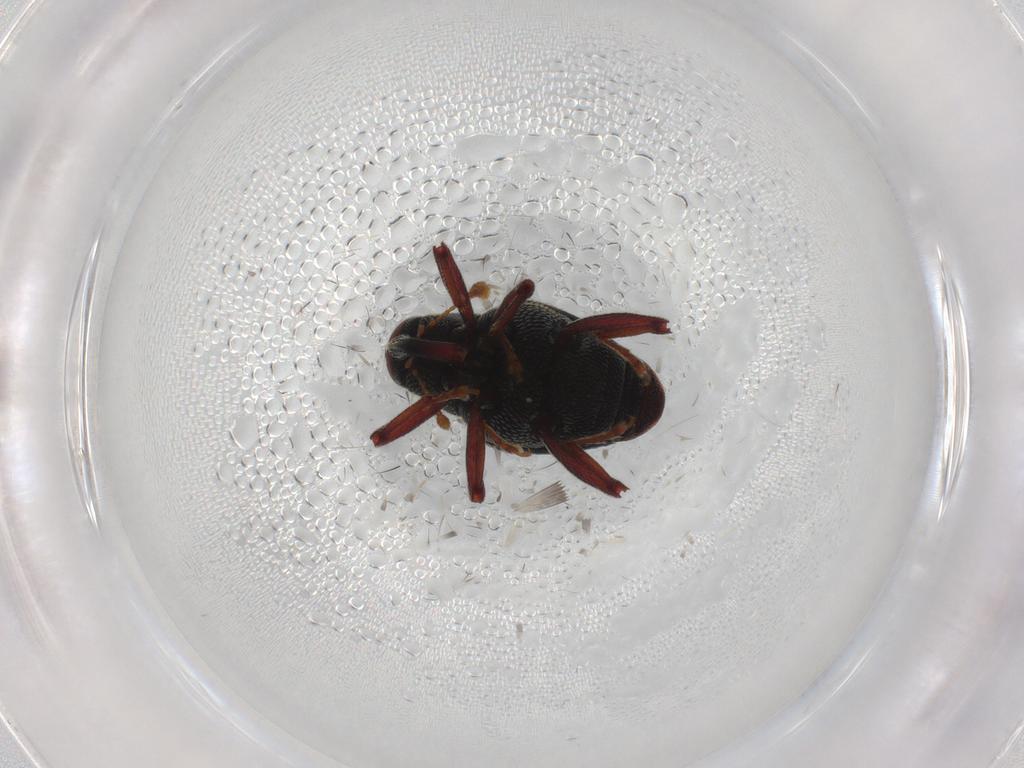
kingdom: Animalia
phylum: Arthropoda
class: Insecta
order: Coleoptera
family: Curculionidae
